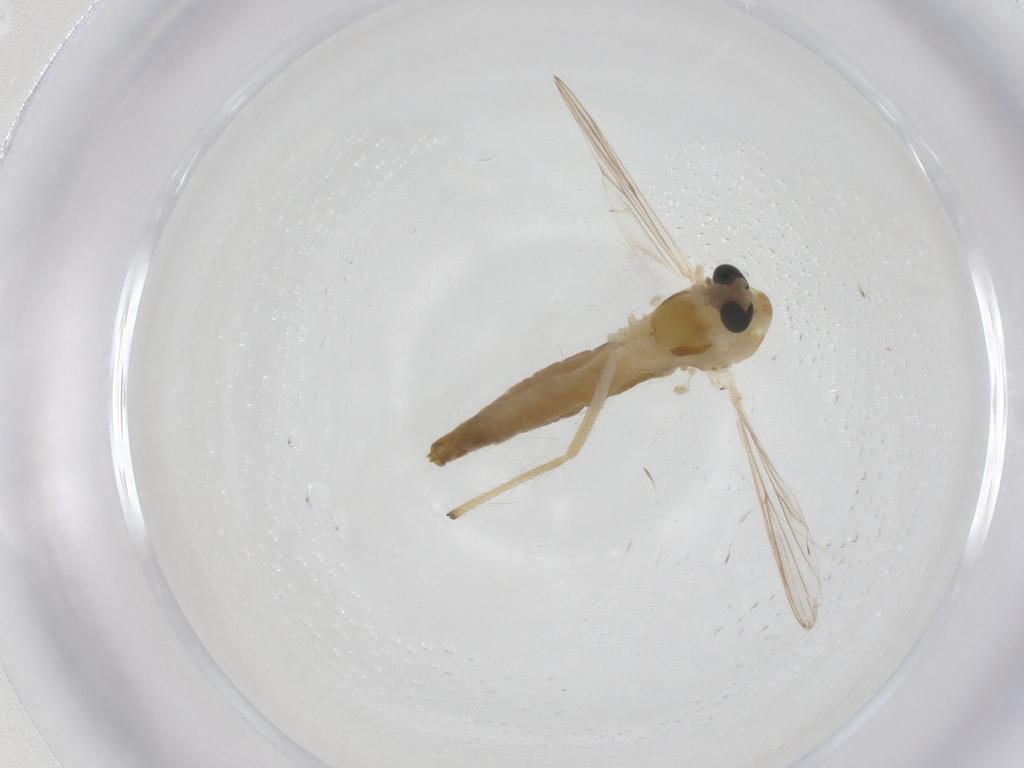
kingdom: Animalia
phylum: Arthropoda
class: Insecta
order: Diptera
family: Chironomidae
